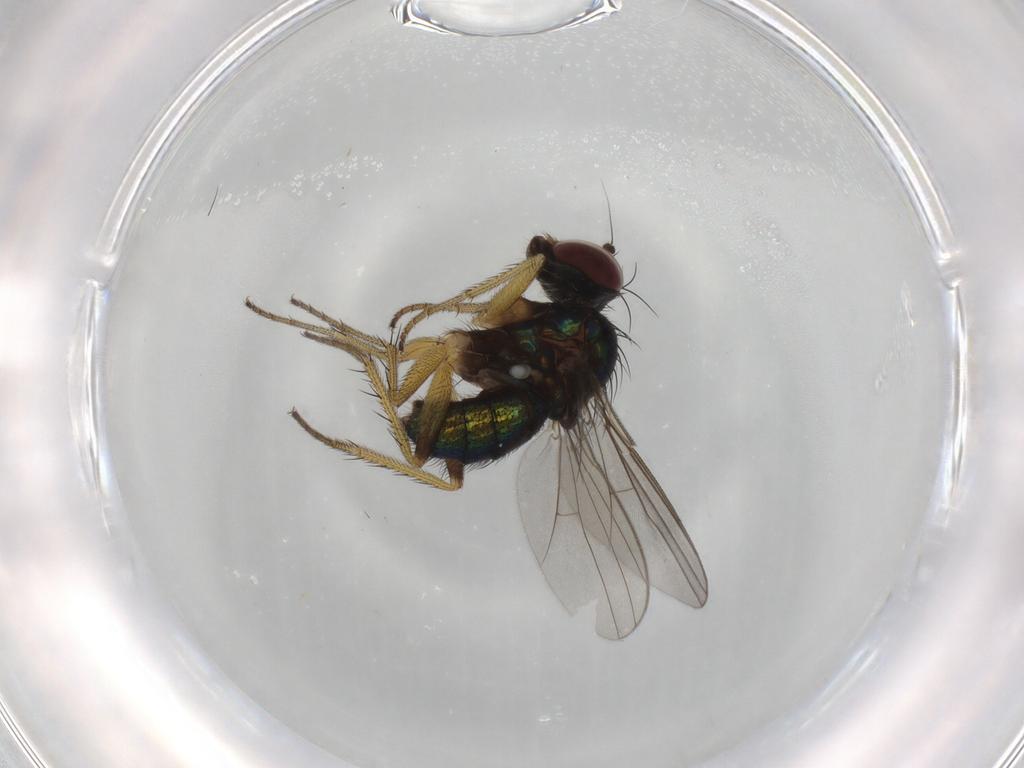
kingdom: Animalia
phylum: Arthropoda
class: Insecta
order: Diptera
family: Dolichopodidae
